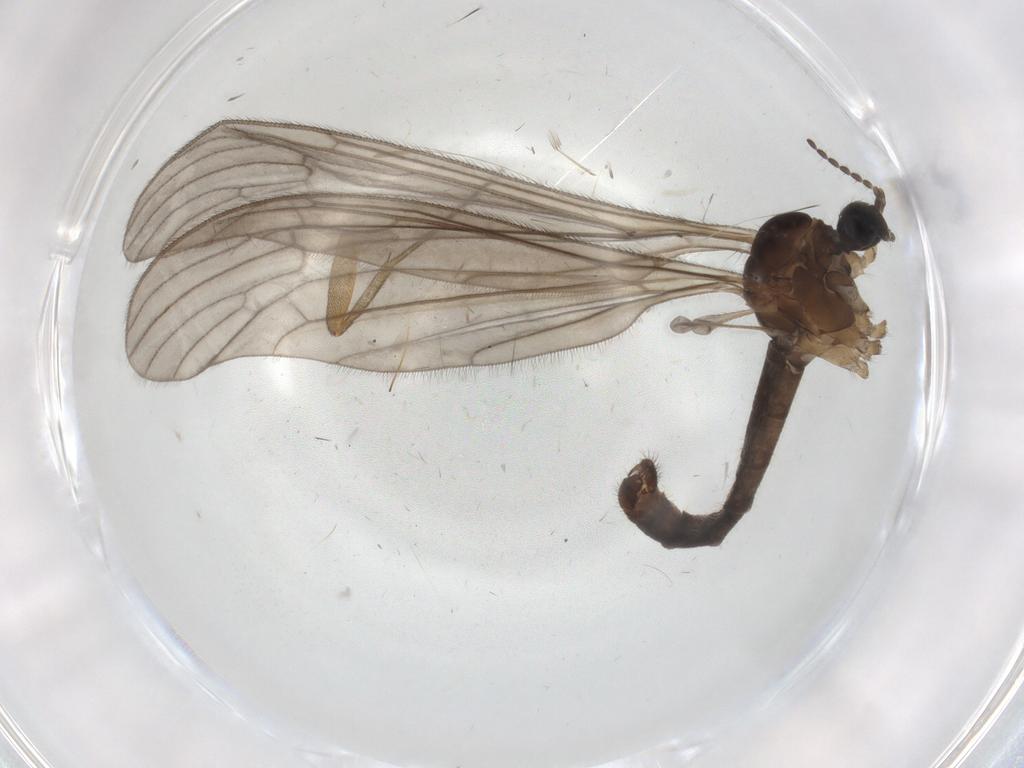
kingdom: Animalia
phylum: Arthropoda
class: Insecta
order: Diptera
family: Limoniidae
